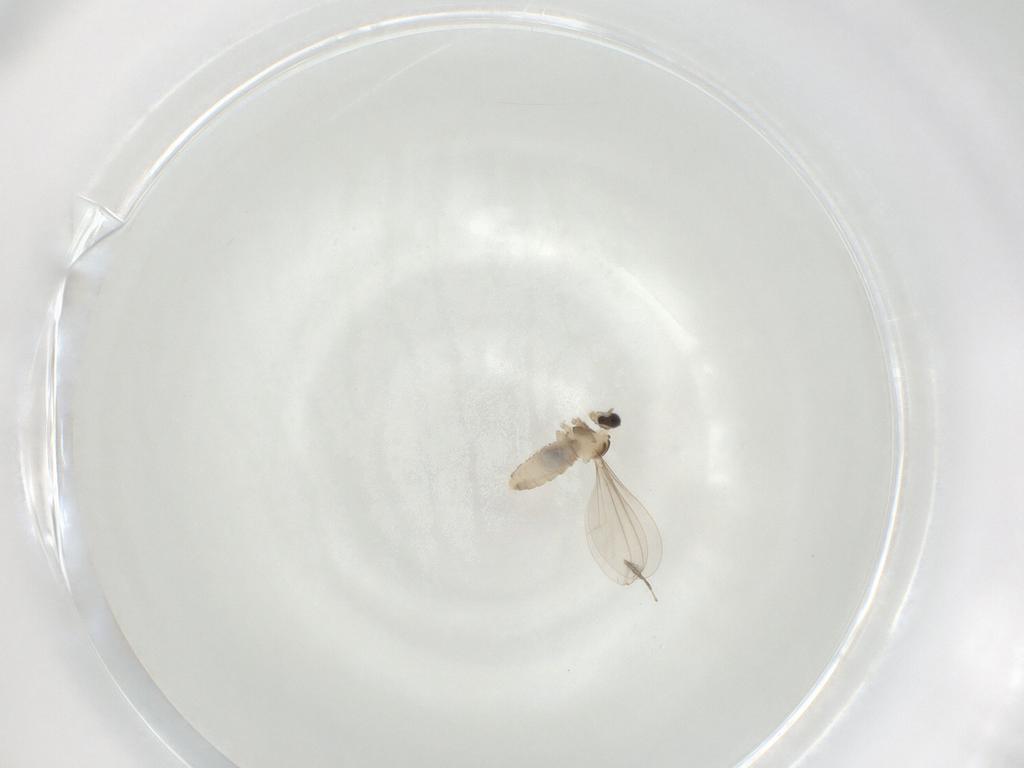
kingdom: Animalia
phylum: Arthropoda
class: Insecta
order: Diptera
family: Cecidomyiidae
